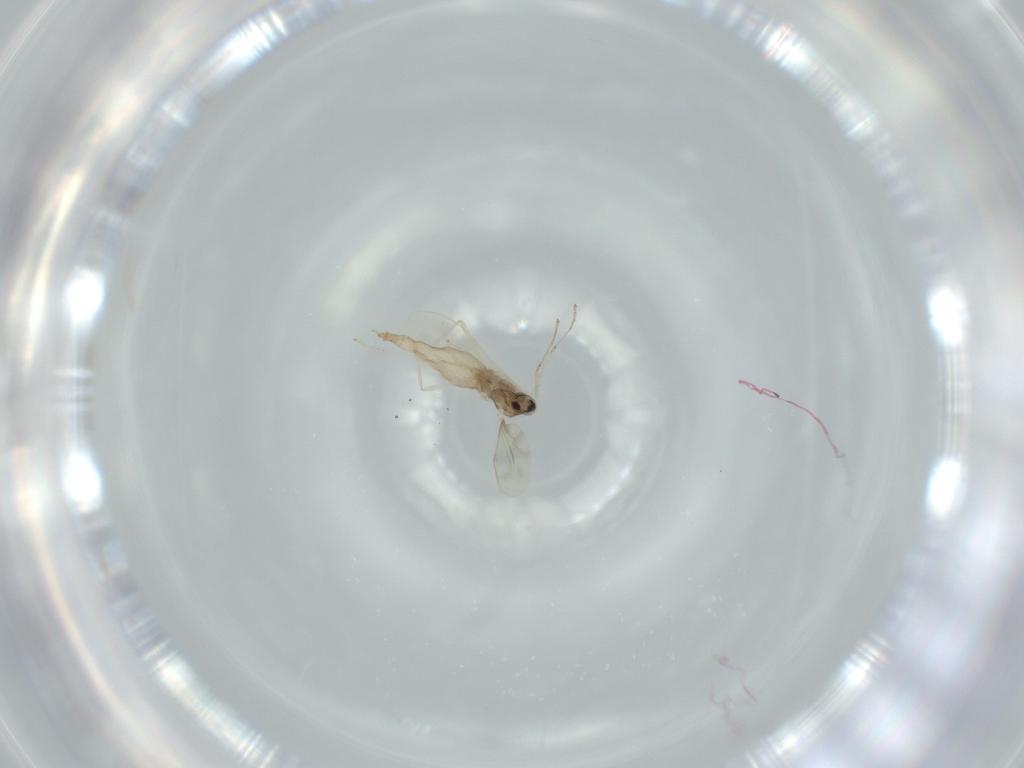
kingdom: Animalia
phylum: Arthropoda
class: Insecta
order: Diptera
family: Cecidomyiidae
